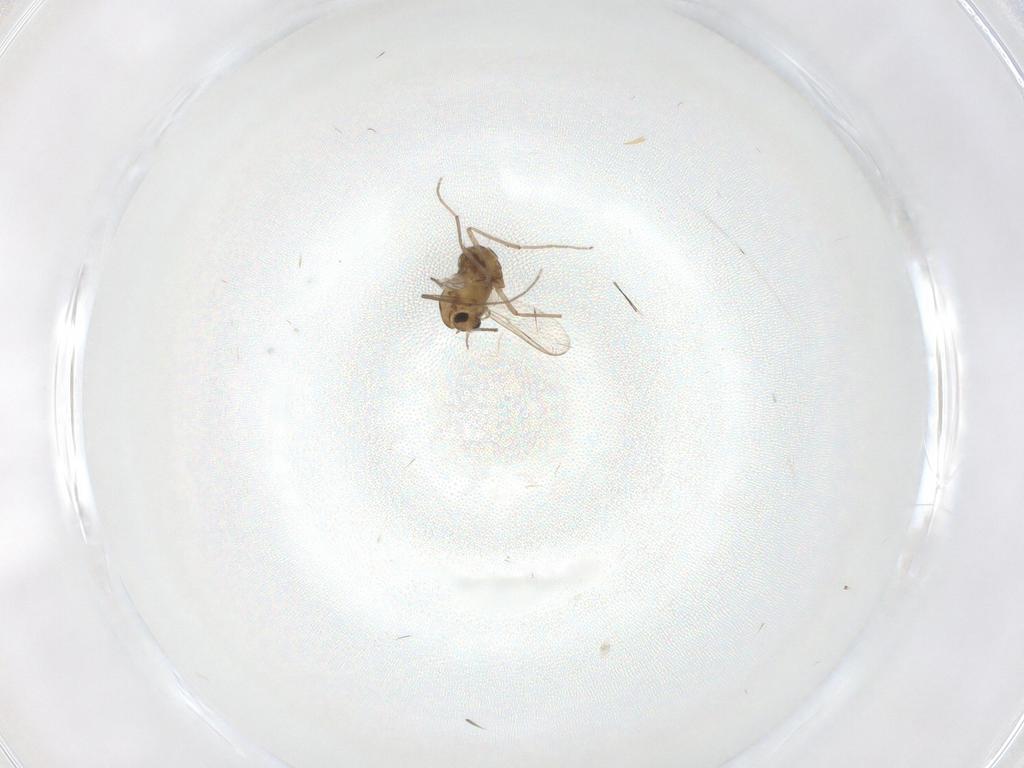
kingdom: Animalia
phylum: Arthropoda
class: Insecta
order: Diptera
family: Chironomidae
